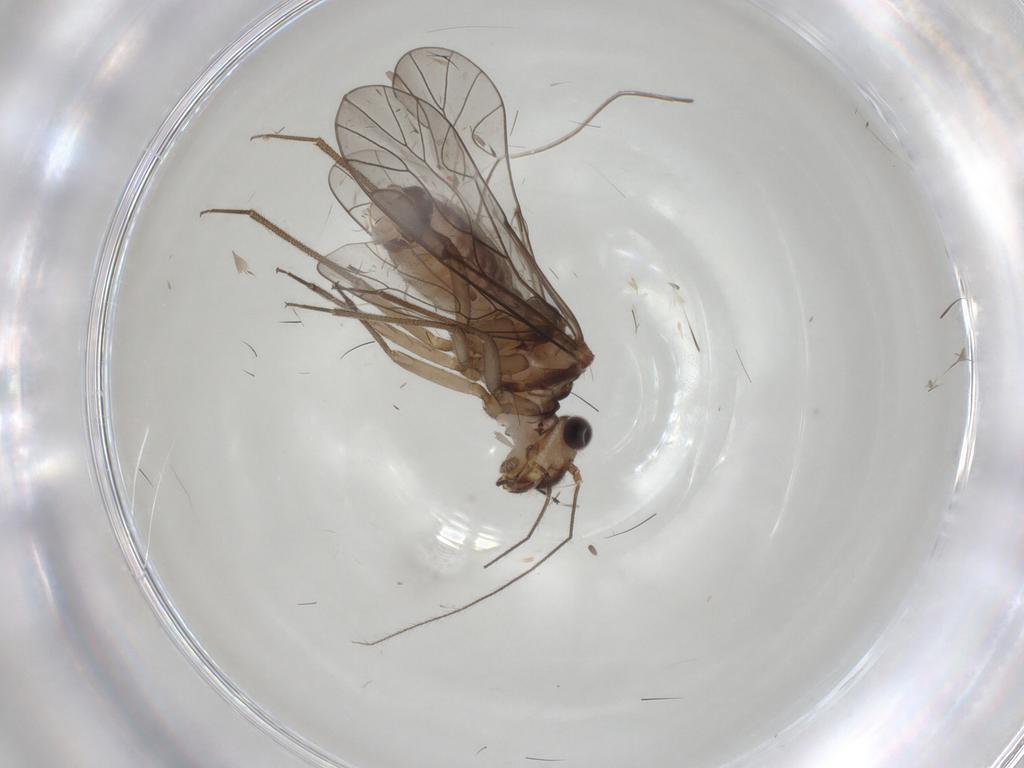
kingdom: Animalia
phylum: Arthropoda
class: Insecta
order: Psocodea
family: Lachesillidae
